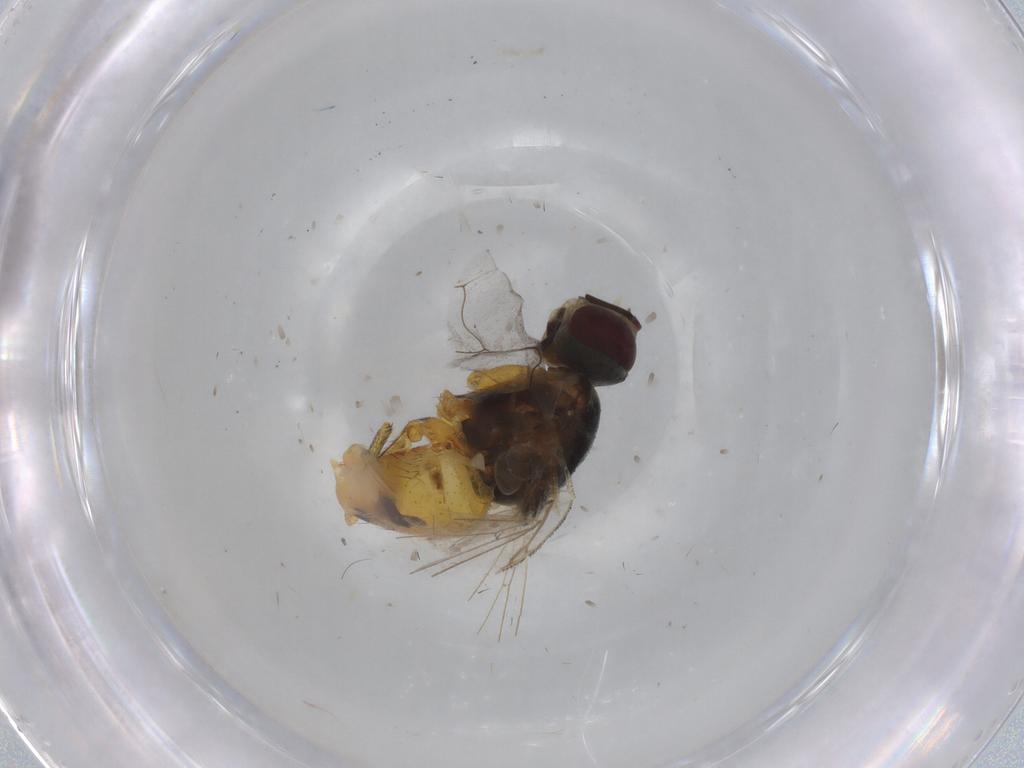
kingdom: Animalia
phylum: Arthropoda
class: Insecta
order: Diptera
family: Muscidae
